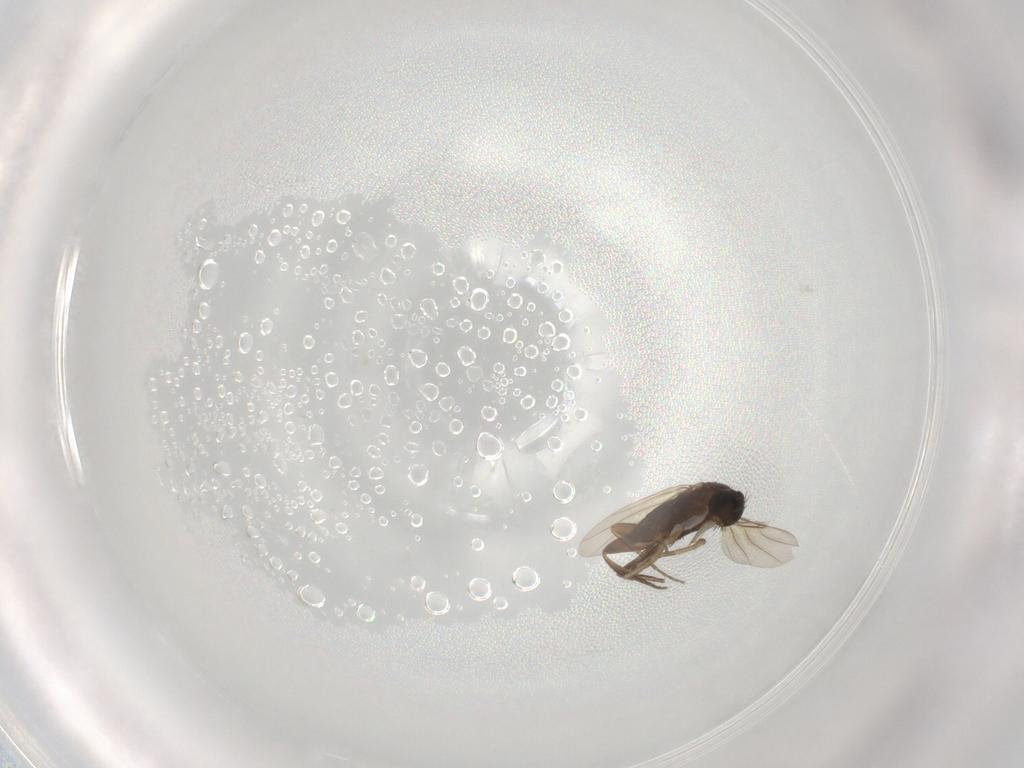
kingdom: Animalia
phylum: Arthropoda
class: Insecta
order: Diptera
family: Phoridae
